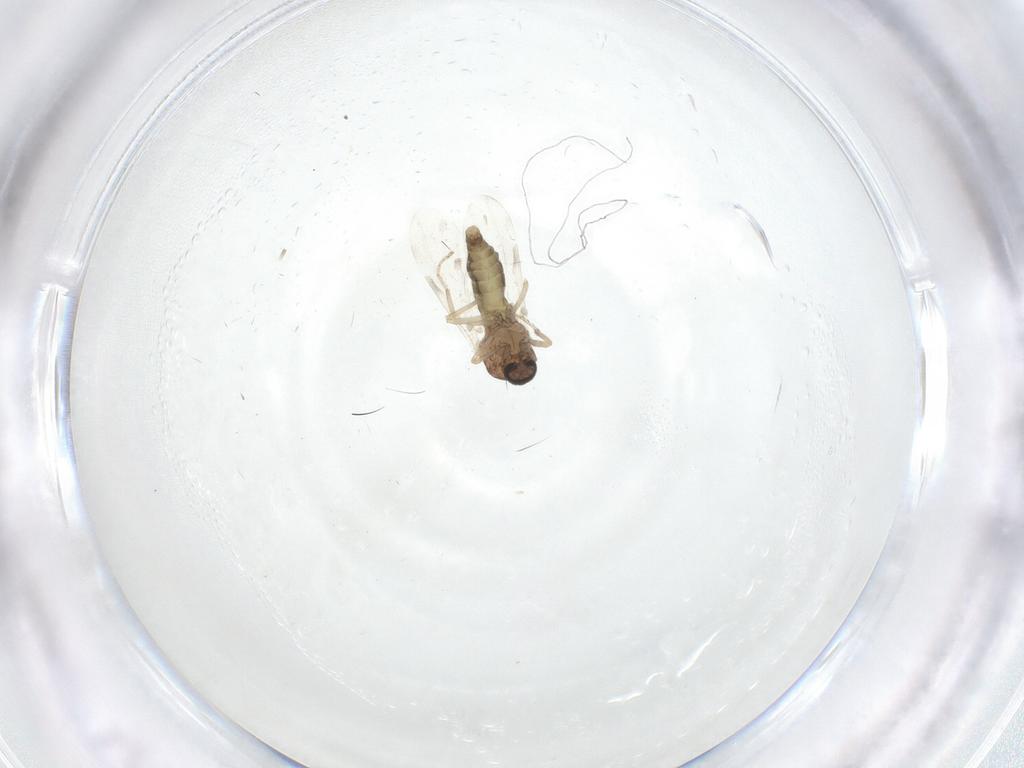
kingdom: Animalia
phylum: Arthropoda
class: Insecta
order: Diptera
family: Ceratopogonidae
